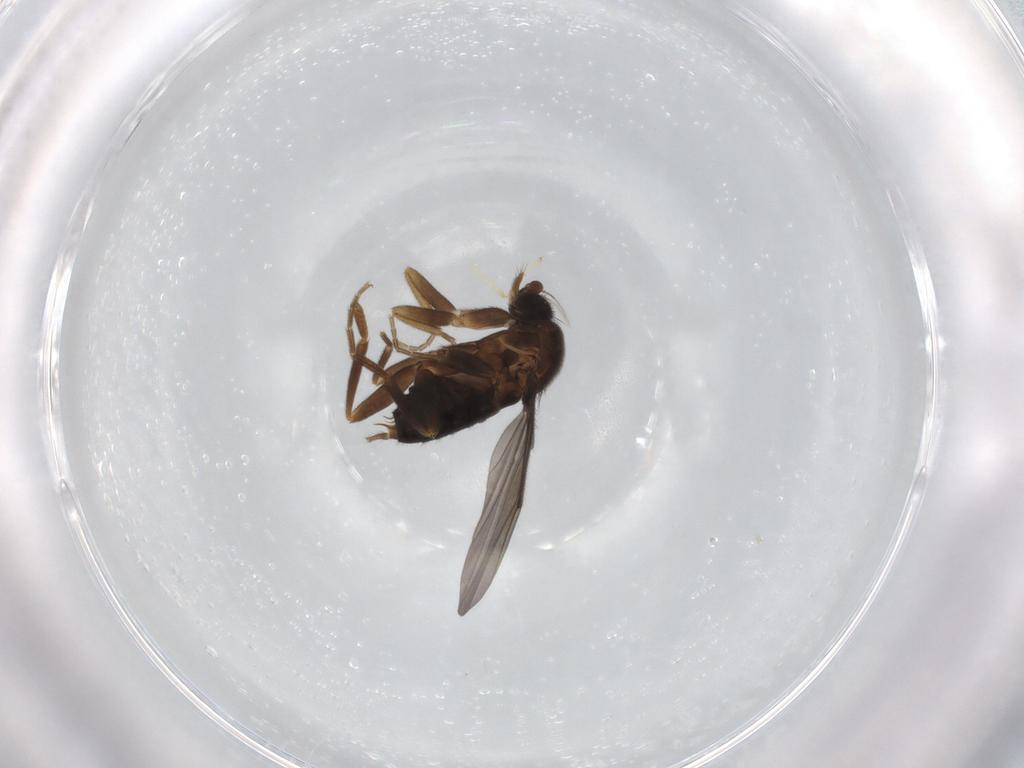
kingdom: Animalia
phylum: Arthropoda
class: Insecta
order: Diptera
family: Phoridae
